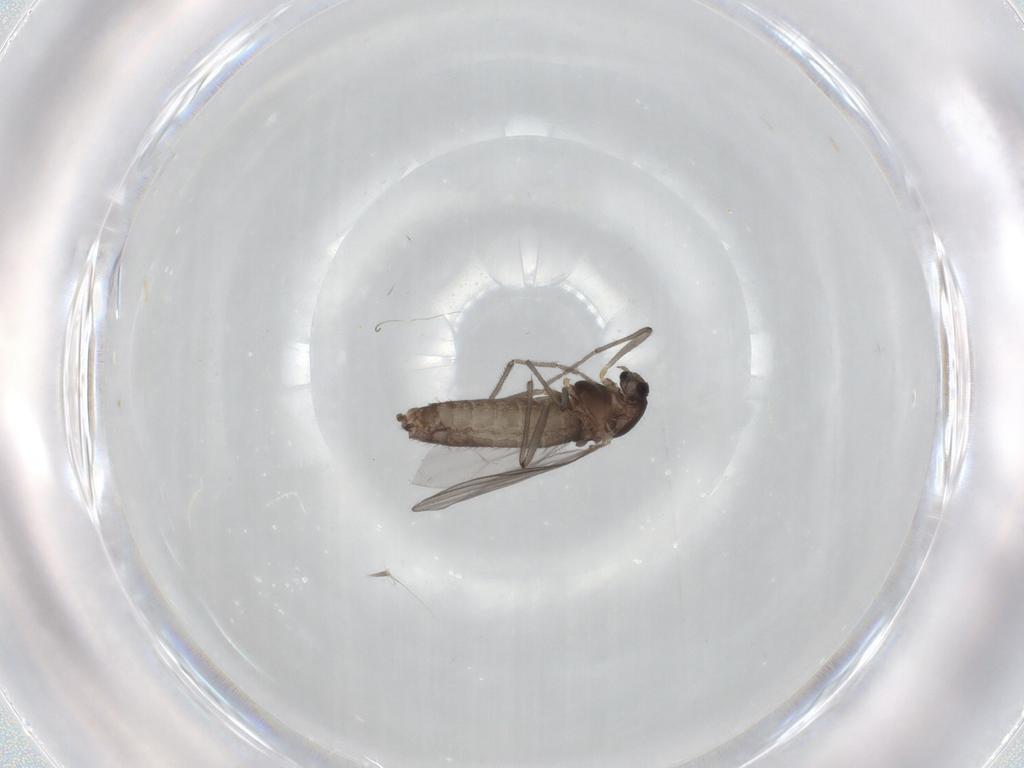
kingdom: Animalia
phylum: Arthropoda
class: Insecta
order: Diptera
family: Chironomidae
